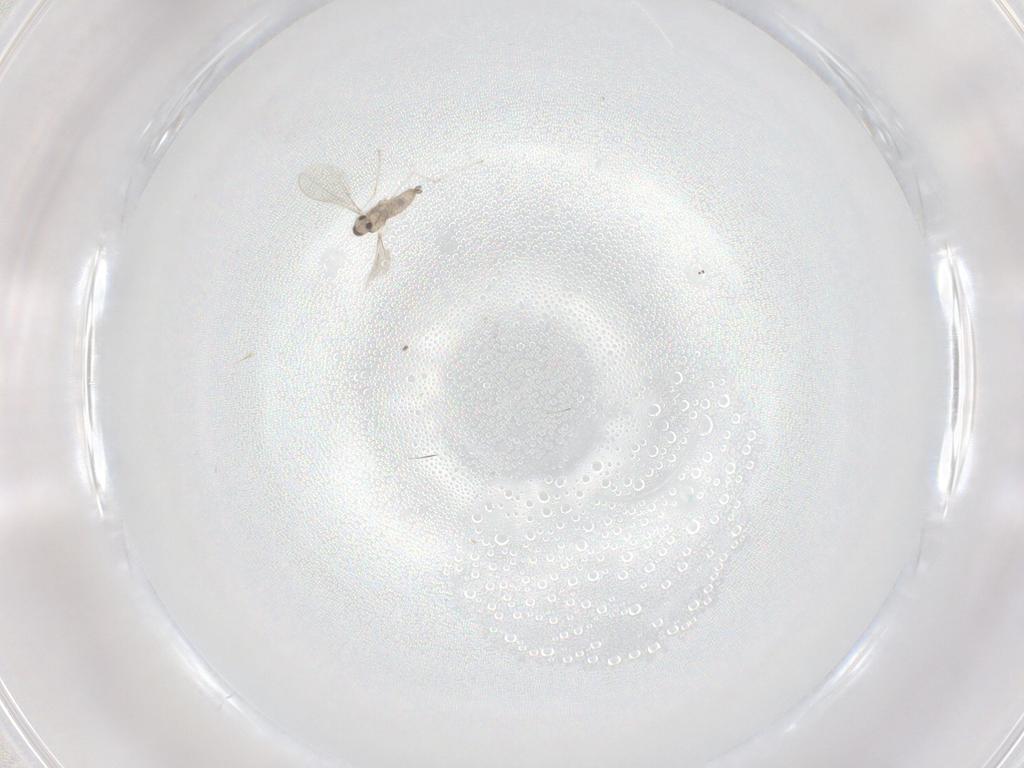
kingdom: Animalia
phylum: Arthropoda
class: Insecta
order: Diptera
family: Cecidomyiidae
